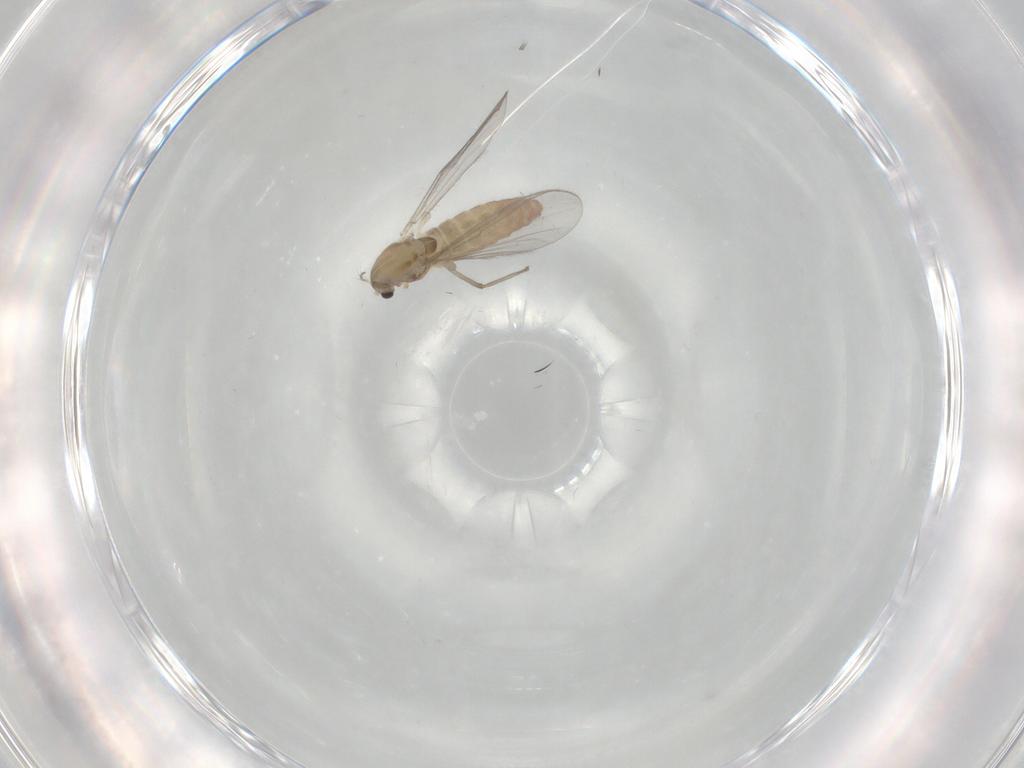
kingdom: Animalia
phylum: Arthropoda
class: Insecta
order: Diptera
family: Chironomidae
